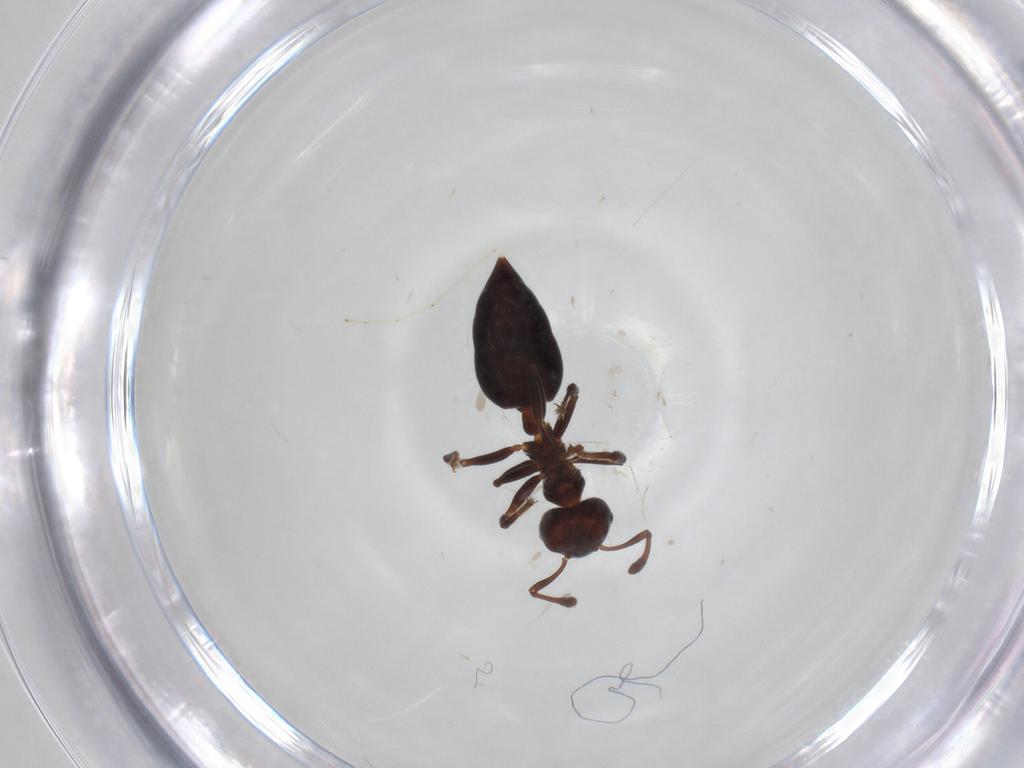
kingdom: Animalia
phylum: Arthropoda
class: Insecta
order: Hymenoptera
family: Formicidae
